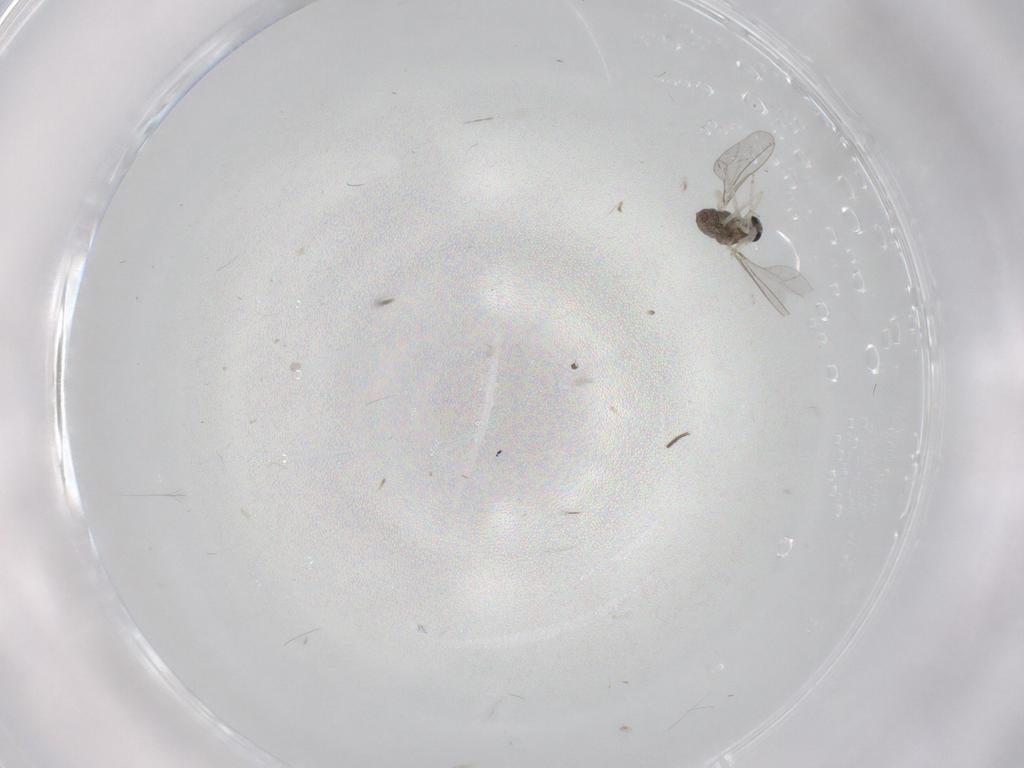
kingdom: Animalia
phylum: Arthropoda
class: Insecta
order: Diptera
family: Cecidomyiidae
